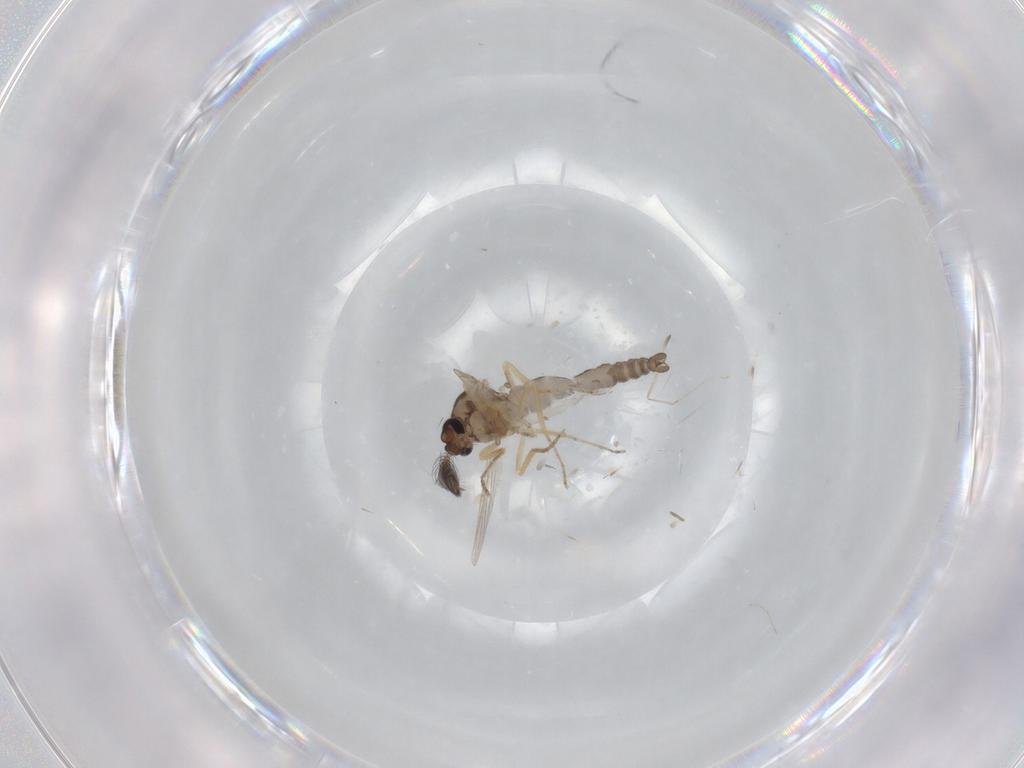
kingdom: Animalia
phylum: Arthropoda
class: Insecta
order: Diptera
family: Ceratopogonidae
